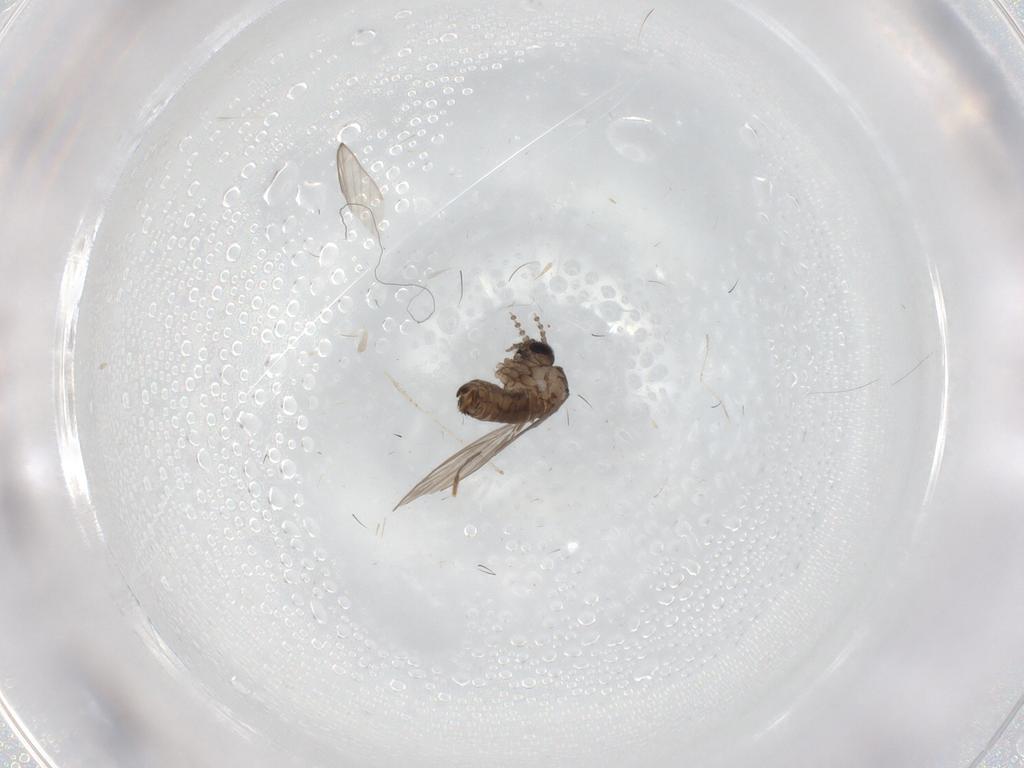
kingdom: Animalia
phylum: Arthropoda
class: Insecta
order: Diptera
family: Psychodidae
